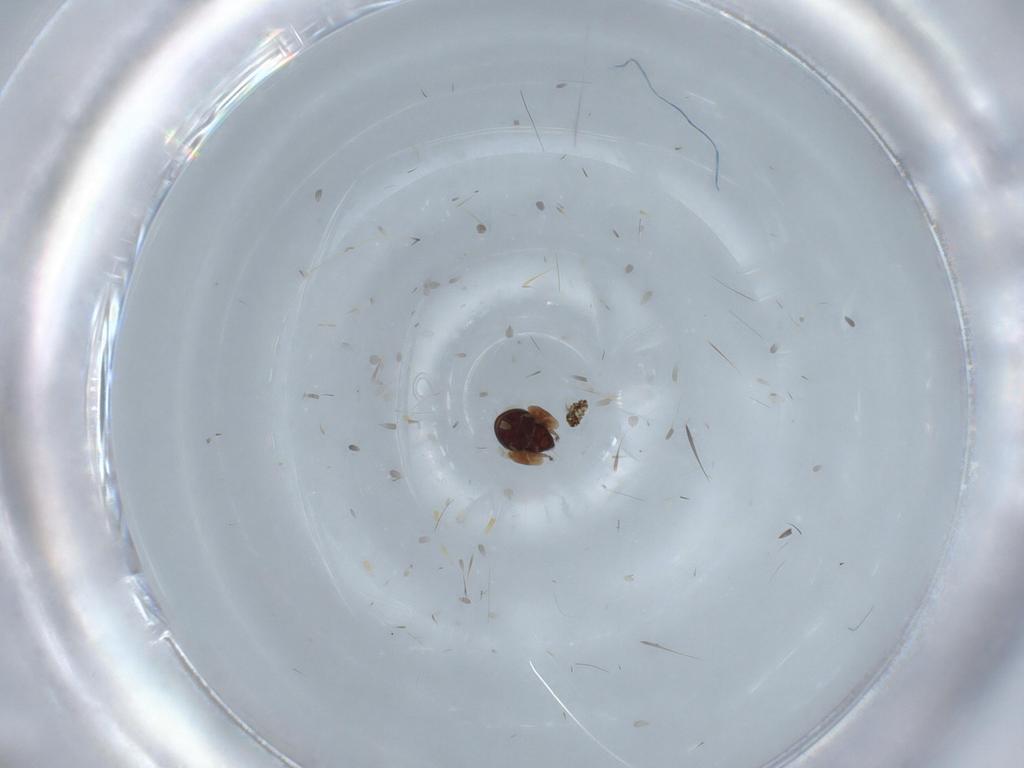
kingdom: Animalia
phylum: Arthropoda
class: Arachnida
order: Sarcoptiformes
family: Galumnidae
